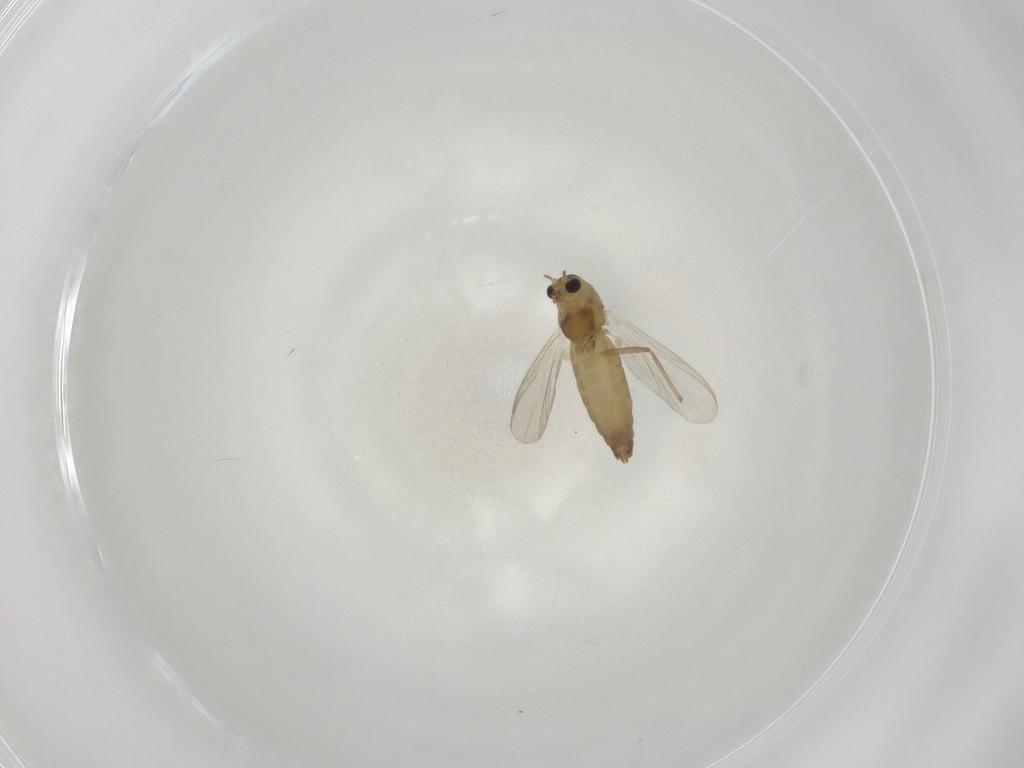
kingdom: Animalia
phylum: Arthropoda
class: Insecta
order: Diptera
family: Chironomidae
